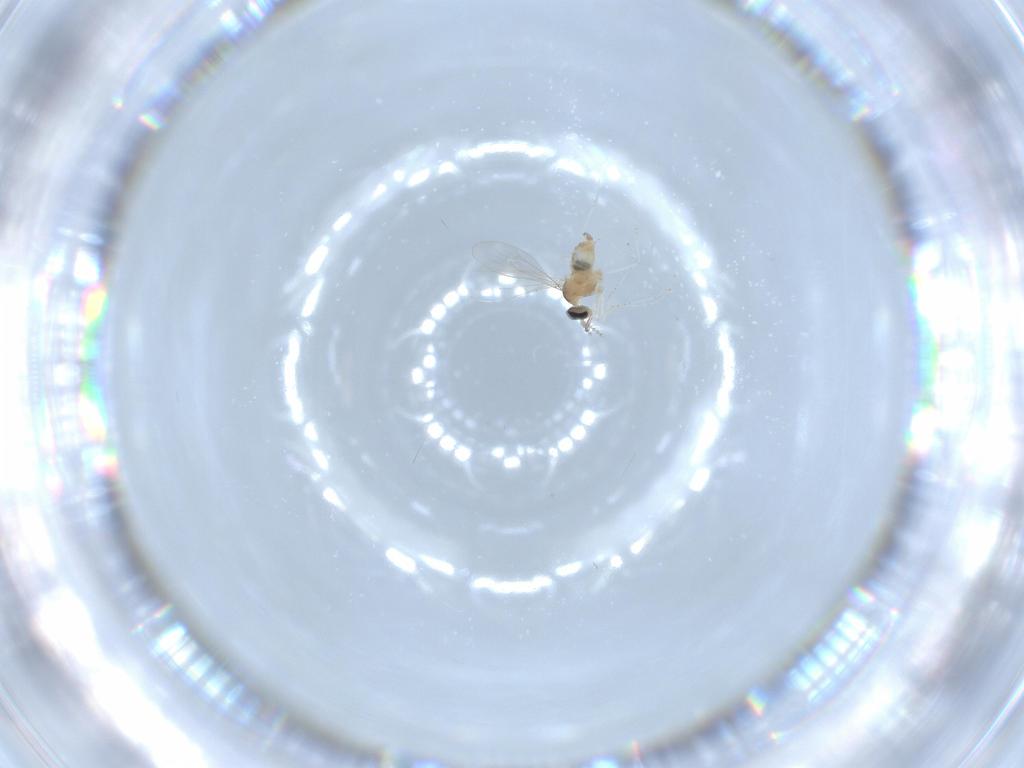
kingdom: Animalia
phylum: Arthropoda
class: Insecta
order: Diptera
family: Cecidomyiidae
